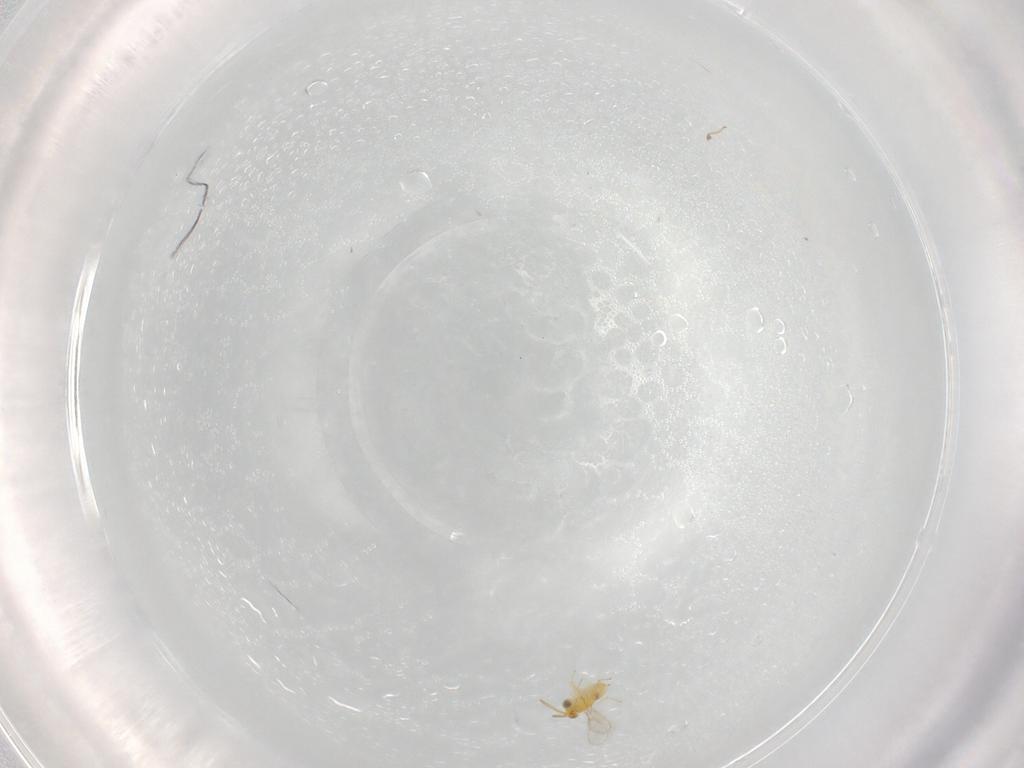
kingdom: Animalia
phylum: Arthropoda
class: Insecta
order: Hymenoptera
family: Aphelinidae
